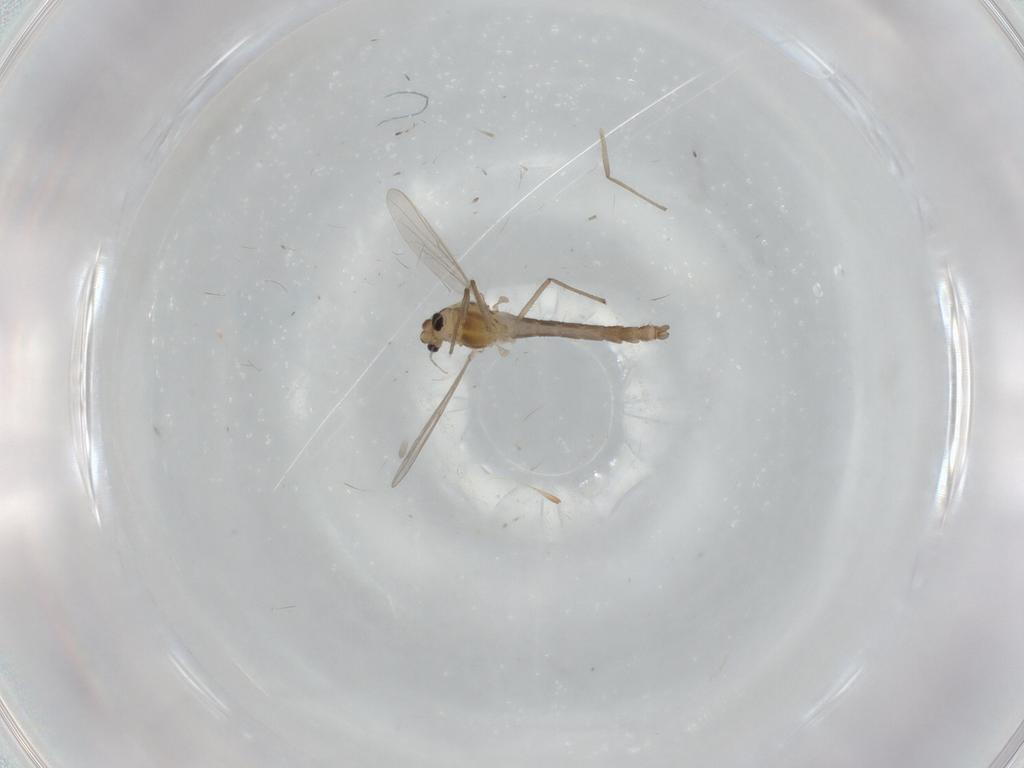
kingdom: Animalia
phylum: Arthropoda
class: Insecta
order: Diptera
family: Chironomidae
